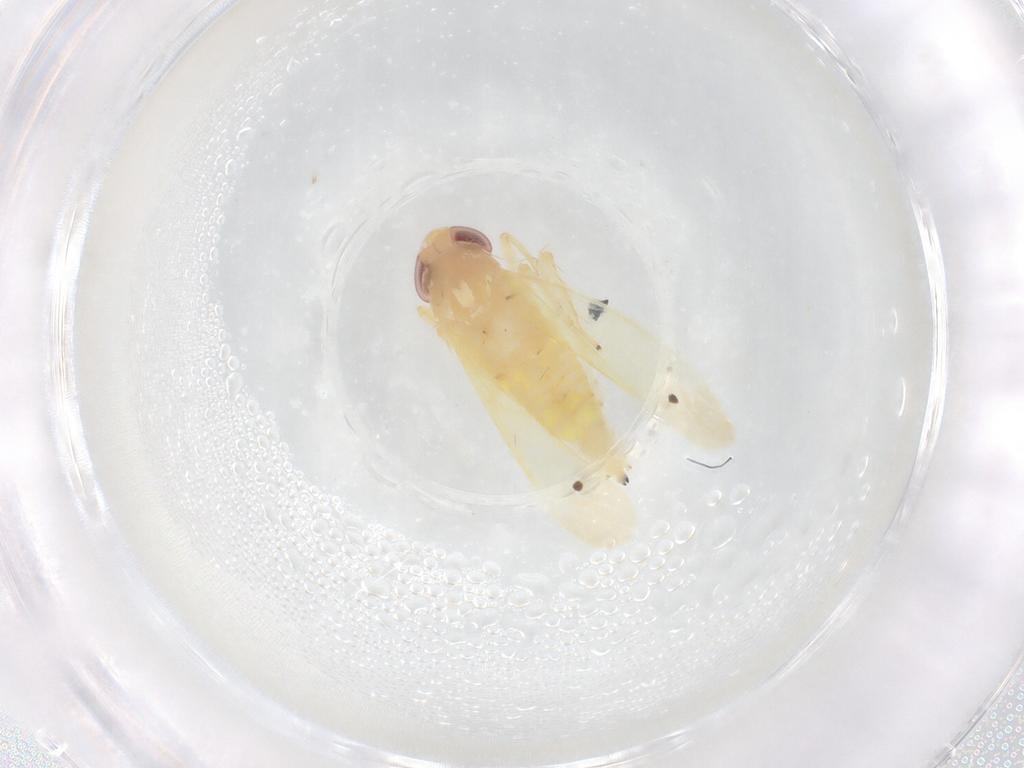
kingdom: Animalia
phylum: Arthropoda
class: Insecta
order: Hemiptera
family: Cicadellidae
